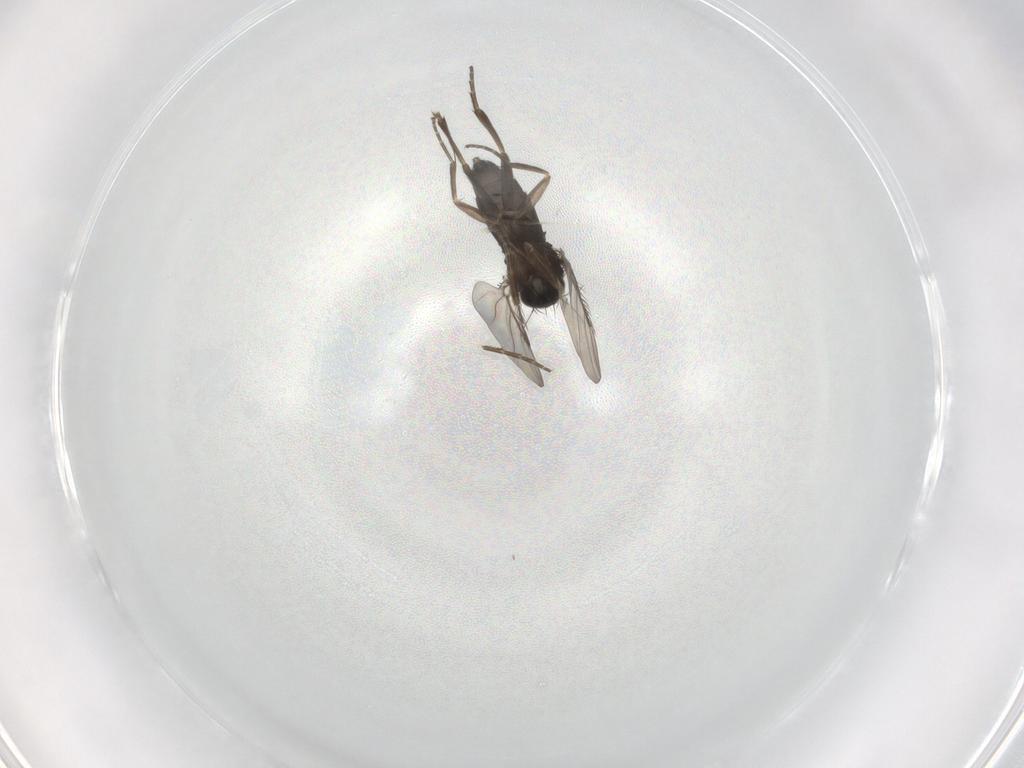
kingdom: Animalia
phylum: Arthropoda
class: Insecta
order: Diptera
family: Phoridae
